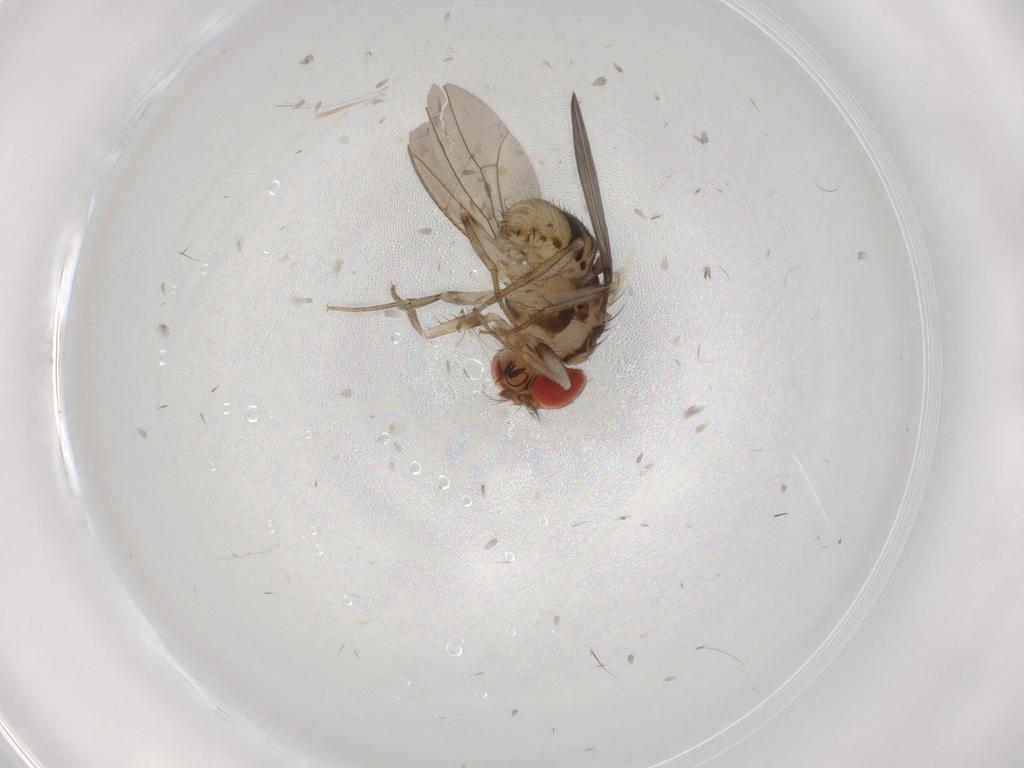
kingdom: Animalia
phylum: Arthropoda
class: Insecta
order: Diptera
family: Drosophilidae
